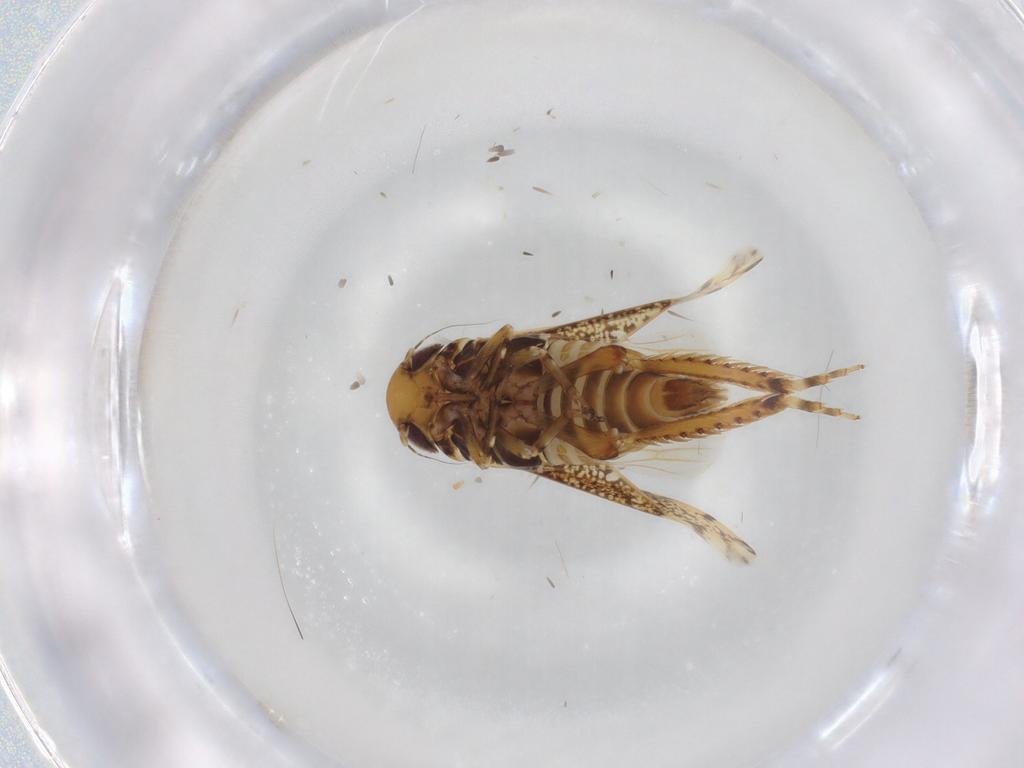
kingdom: Animalia
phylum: Arthropoda
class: Insecta
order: Hemiptera
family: Cicadellidae
